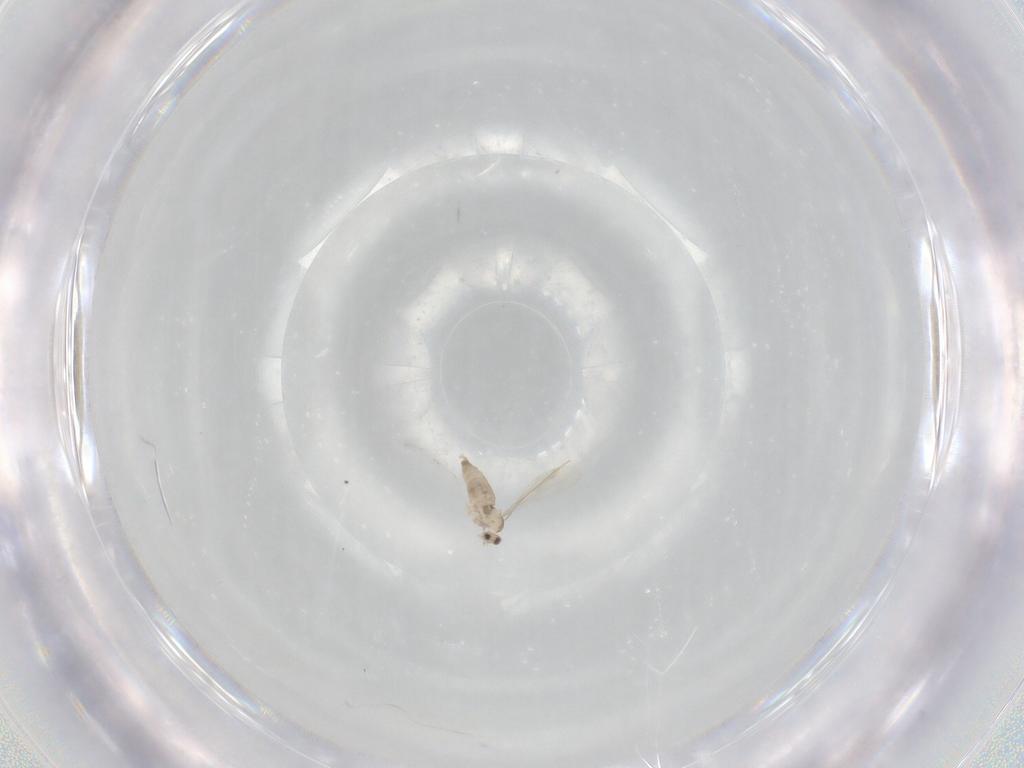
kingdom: Animalia
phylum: Arthropoda
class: Insecta
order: Diptera
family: Cecidomyiidae
